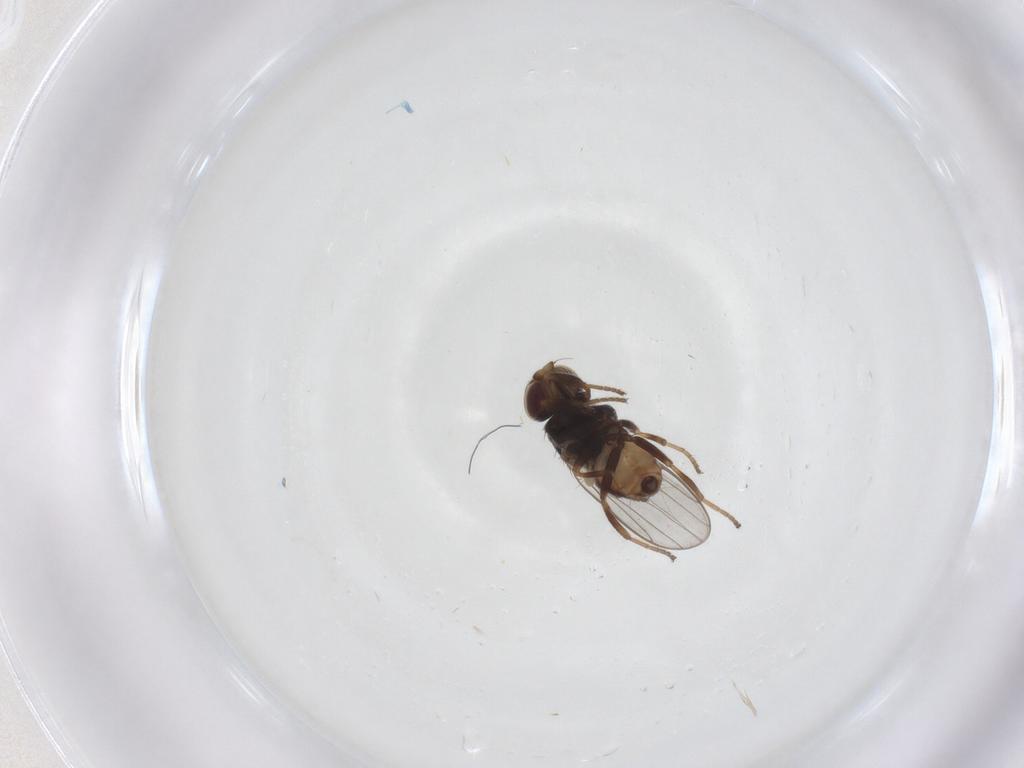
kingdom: Animalia
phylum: Arthropoda
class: Insecta
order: Diptera
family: Chloropidae
